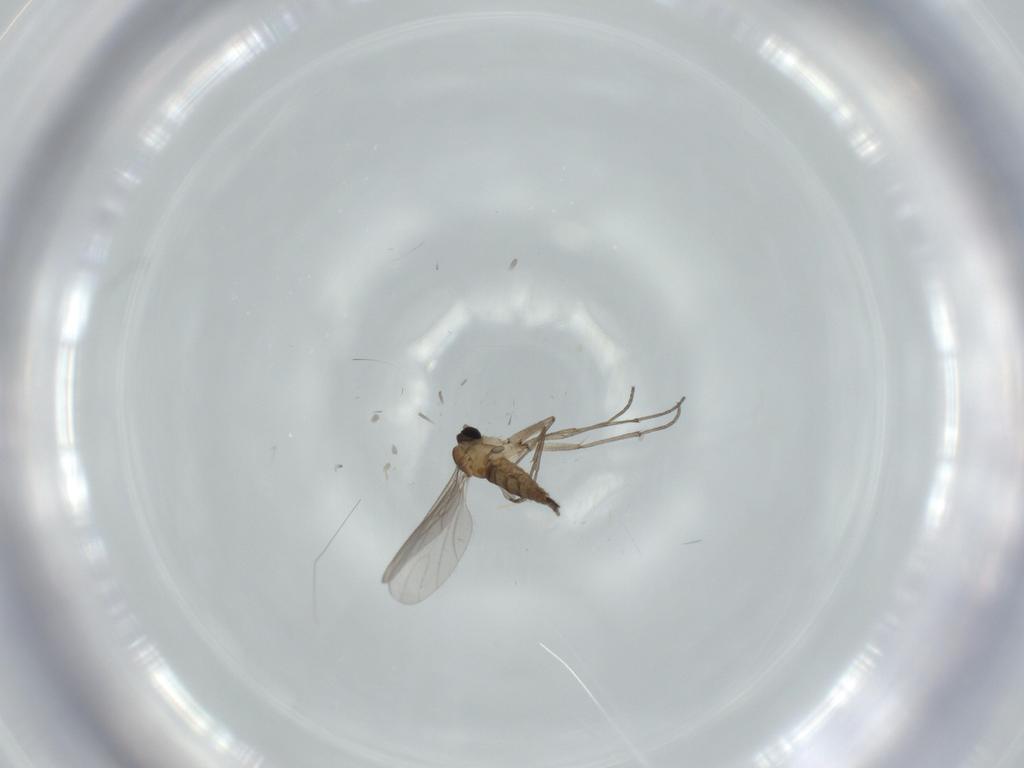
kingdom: Animalia
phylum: Arthropoda
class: Insecta
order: Diptera
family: Sciaridae
